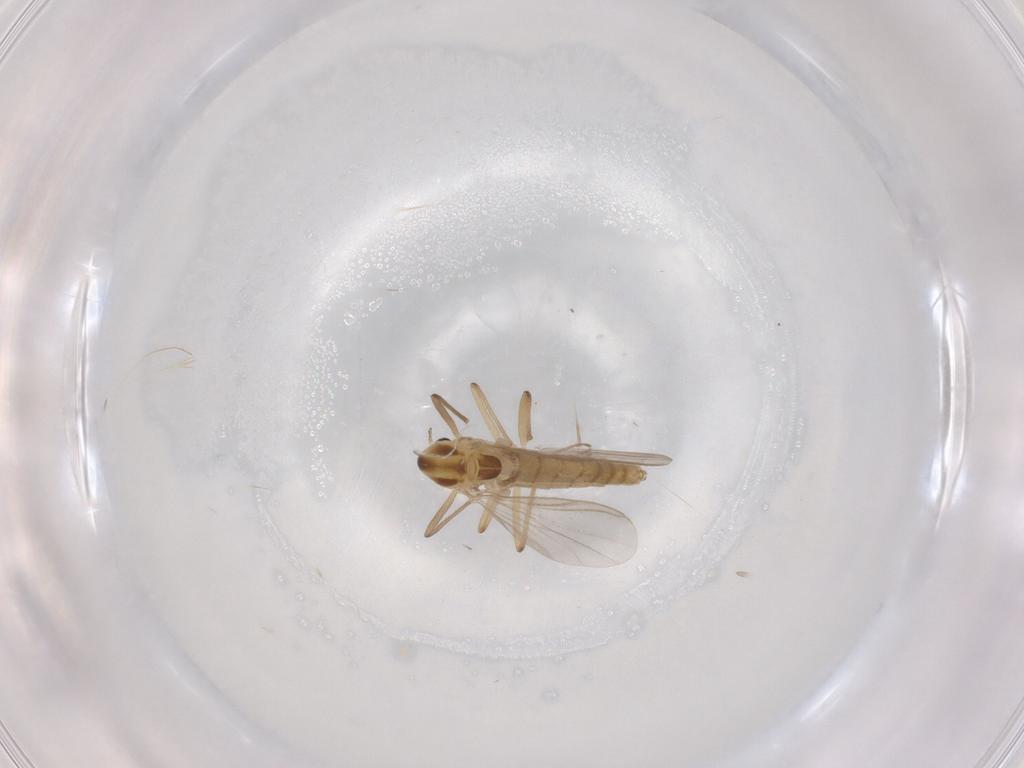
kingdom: Animalia
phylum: Arthropoda
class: Insecta
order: Diptera
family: Chironomidae
